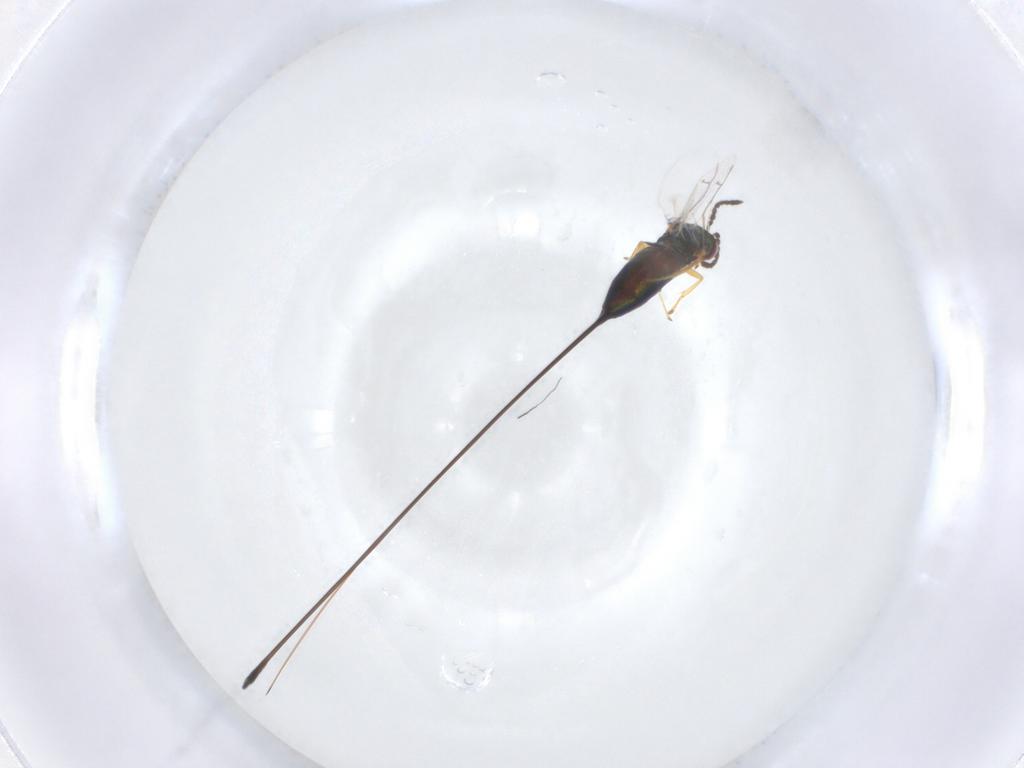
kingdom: Animalia
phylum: Arthropoda
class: Insecta
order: Hymenoptera
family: Pteromalidae
